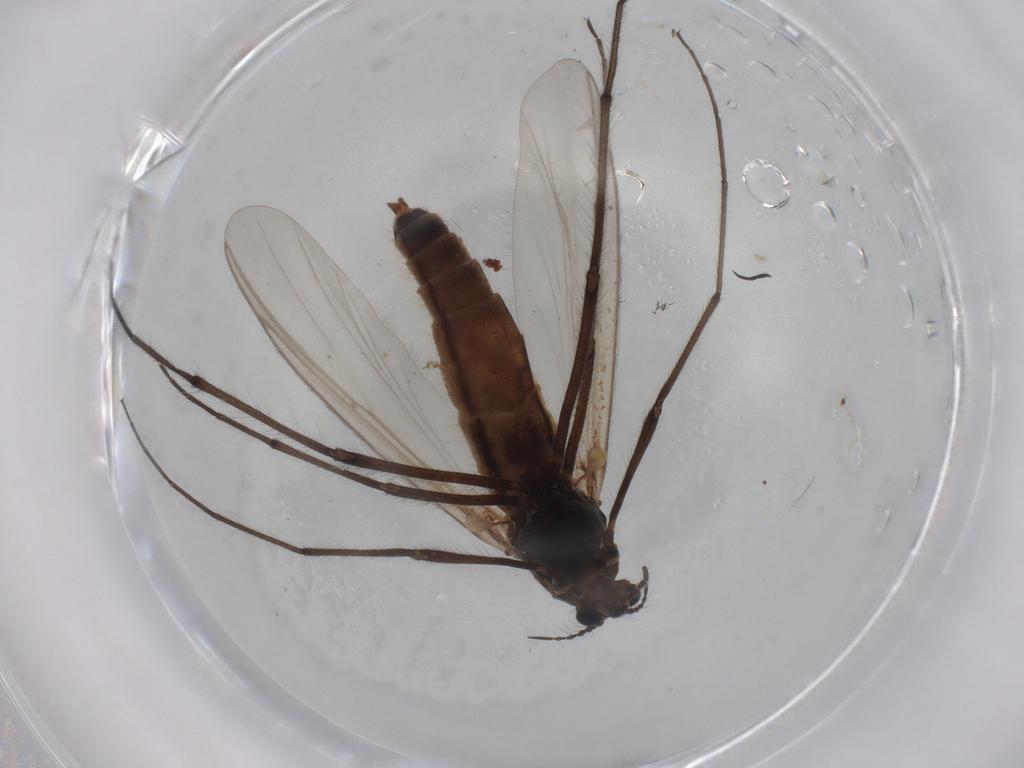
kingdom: Animalia
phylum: Arthropoda
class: Insecta
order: Diptera
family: Chironomidae
